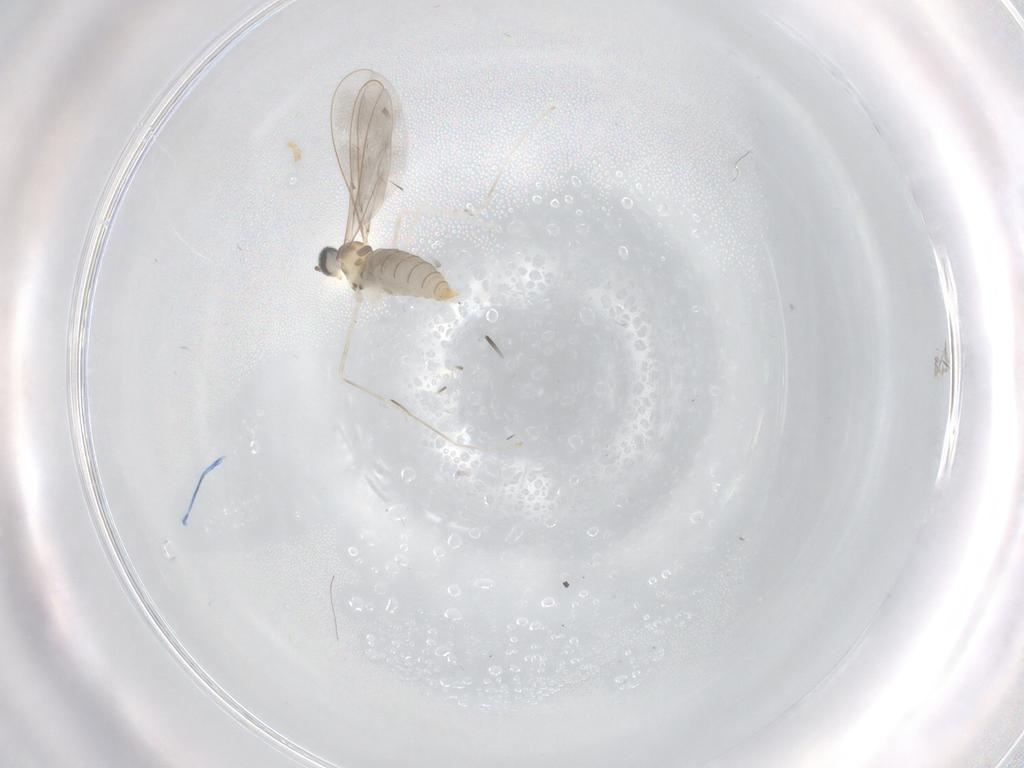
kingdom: Animalia
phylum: Arthropoda
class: Insecta
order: Diptera
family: Cecidomyiidae
